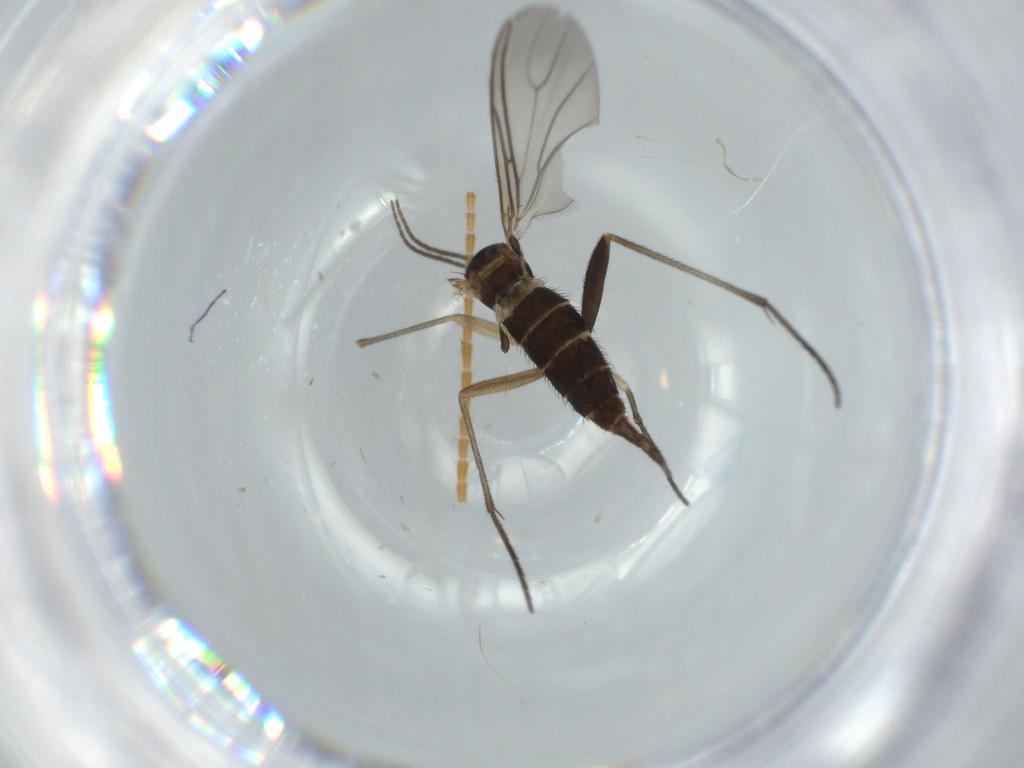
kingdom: Animalia
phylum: Arthropoda
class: Insecta
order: Diptera
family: Sciaridae
